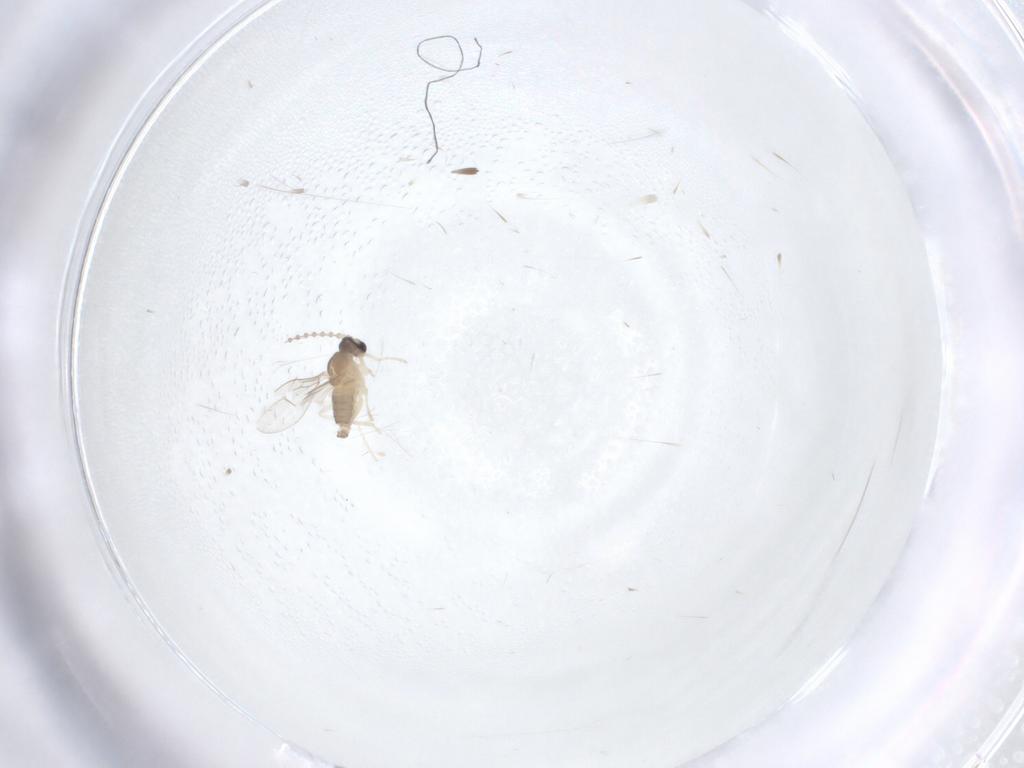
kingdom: Animalia
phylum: Arthropoda
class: Insecta
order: Diptera
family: Cecidomyiidae
